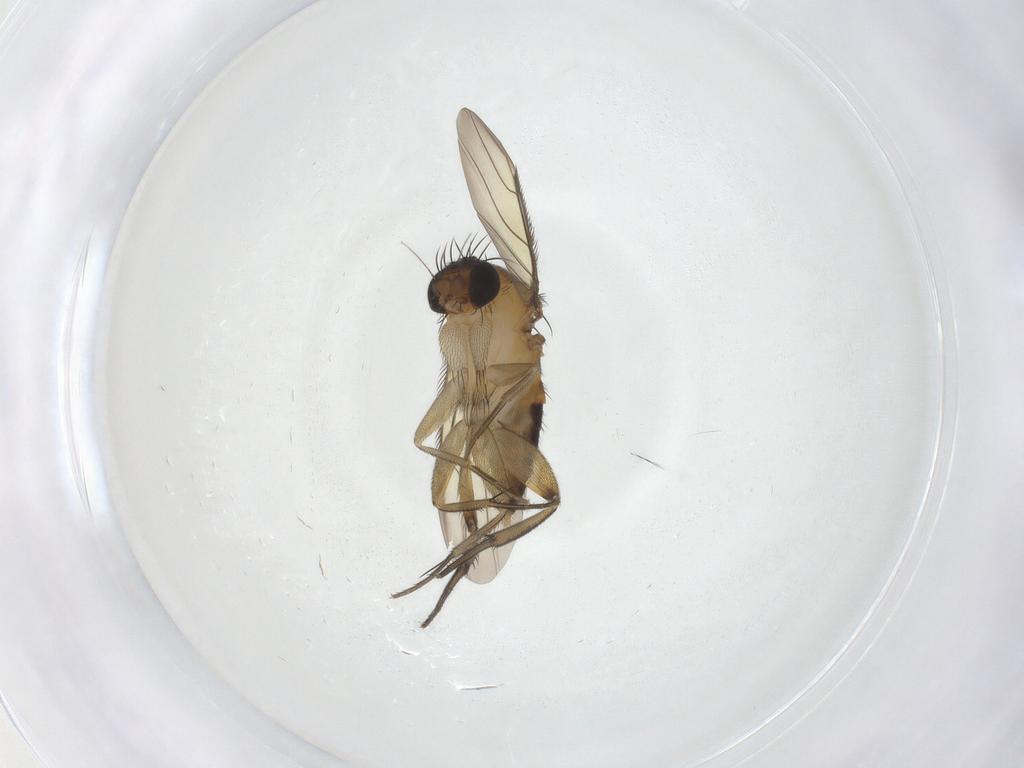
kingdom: Animalia
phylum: Arthropoda
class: Insecta
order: Diptera
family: Phoridae
